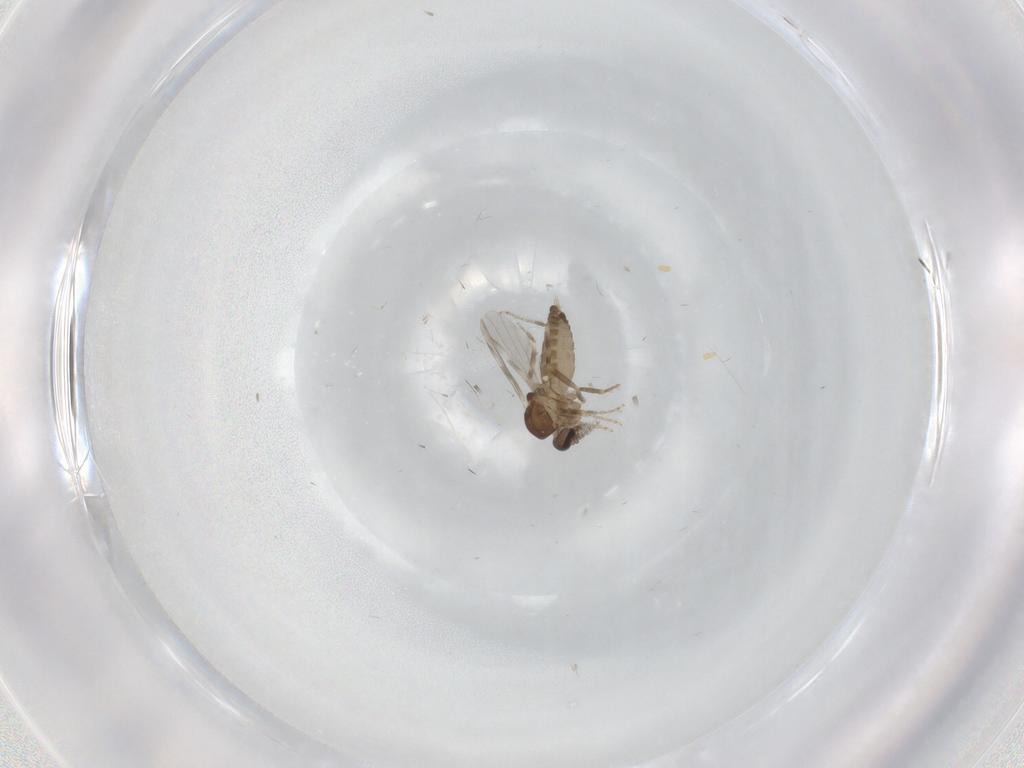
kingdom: Animalia
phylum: Arthropoda
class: Insecta
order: Diptera
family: Ceratopogonidae
